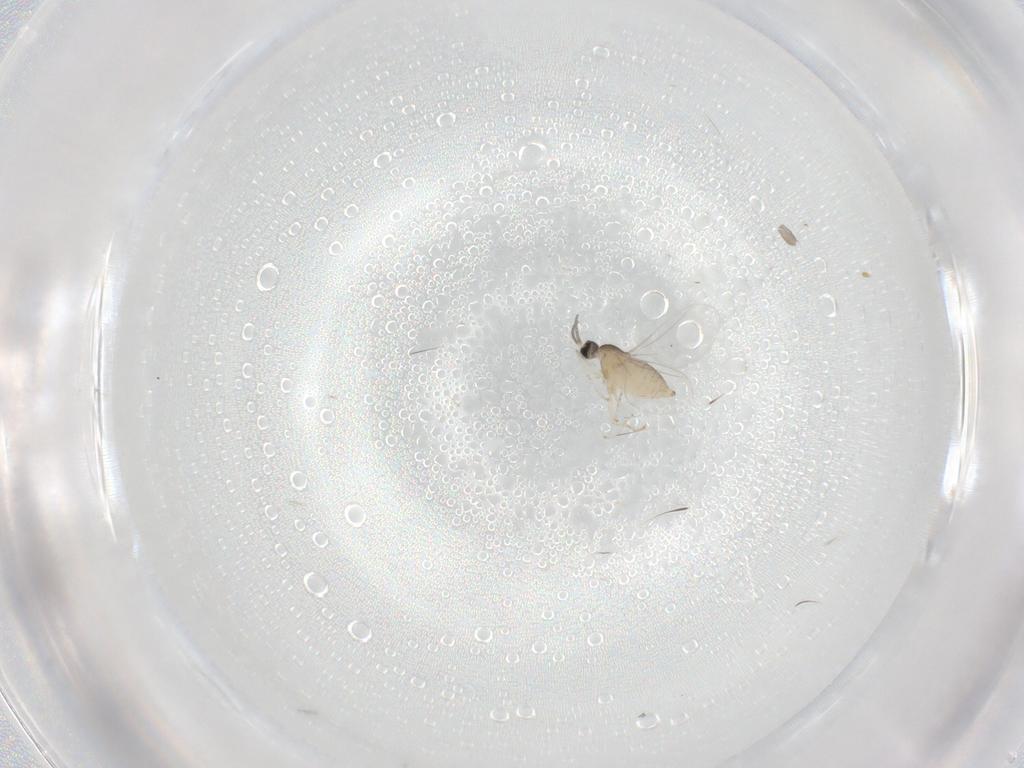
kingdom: Animalia
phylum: Arthropoda
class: Insecta
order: Diptera
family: Cecidomyiidae
